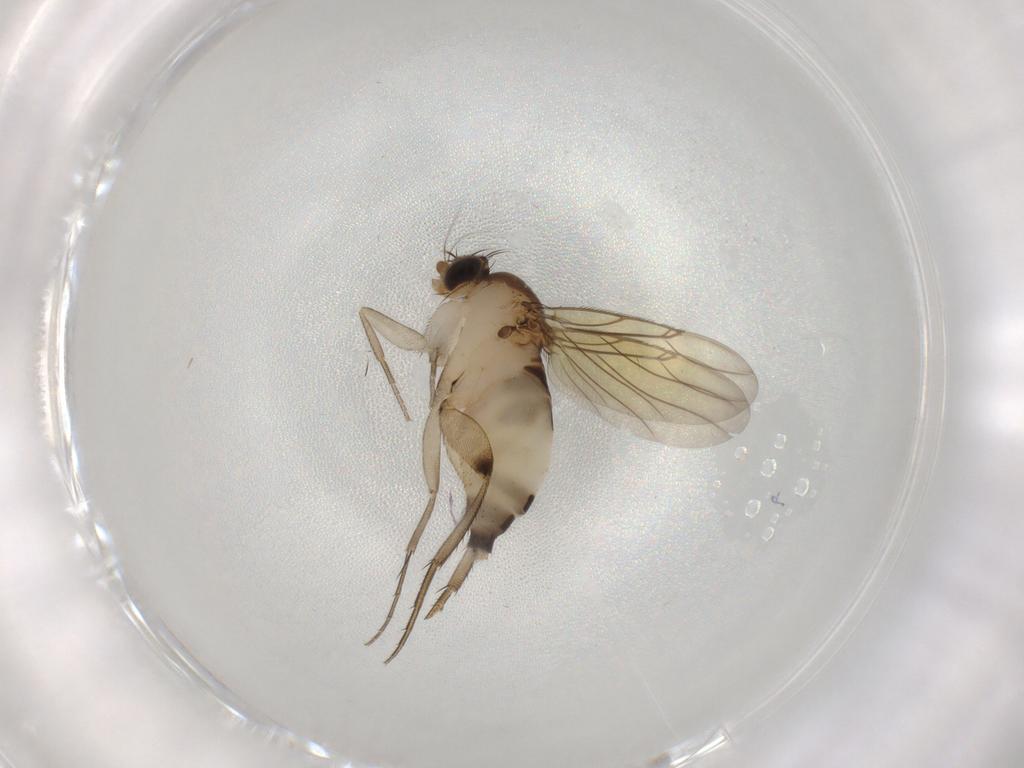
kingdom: Animalia
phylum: Arthropoda
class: Insecta
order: Diptera
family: Phoridae
